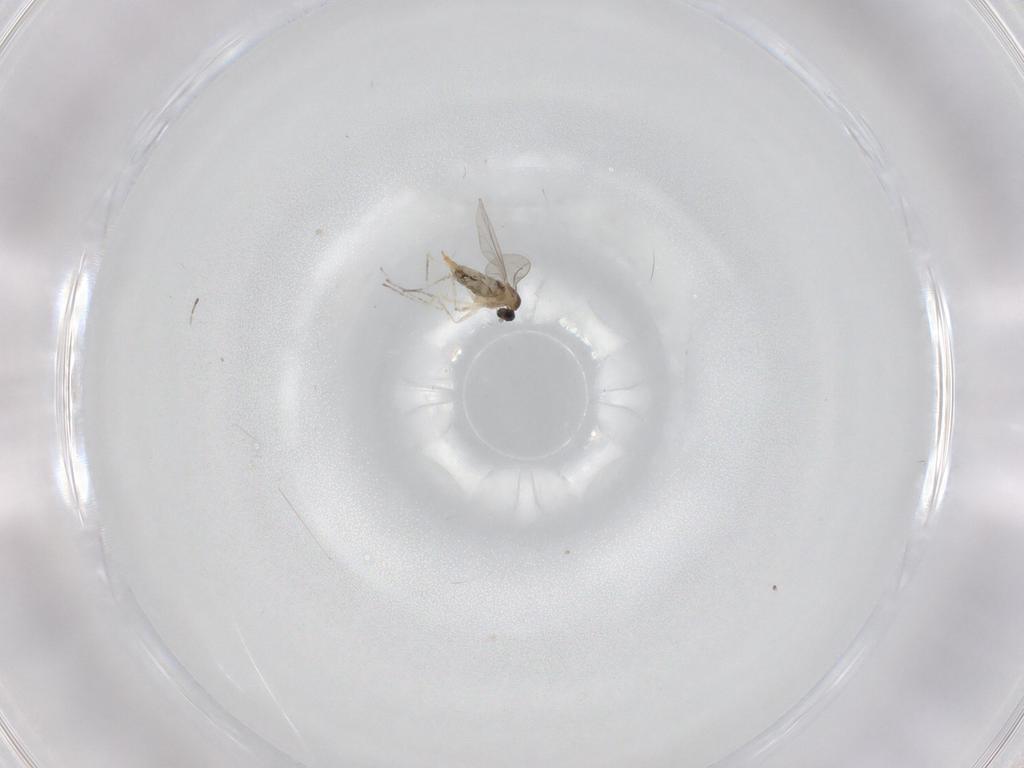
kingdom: Animalia
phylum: Arthropoda
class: Insecta
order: Diptera
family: Cecidomyiidae
